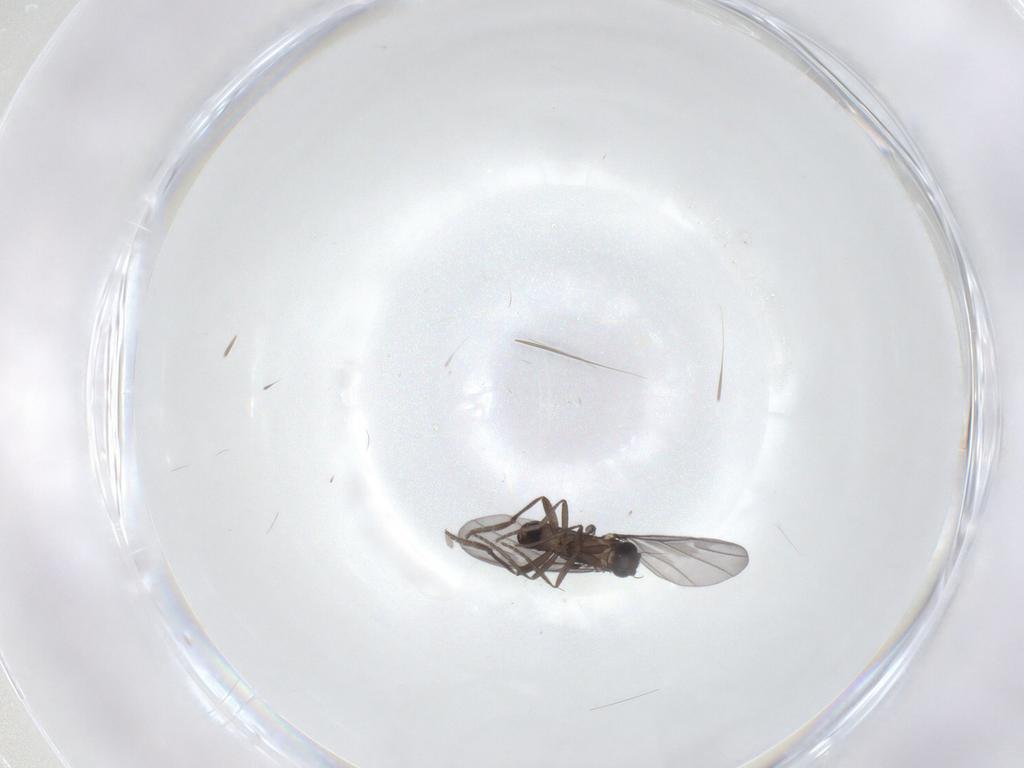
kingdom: Animalia
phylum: Arthropoda
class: Insecta
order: Diptera
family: Phoridae
